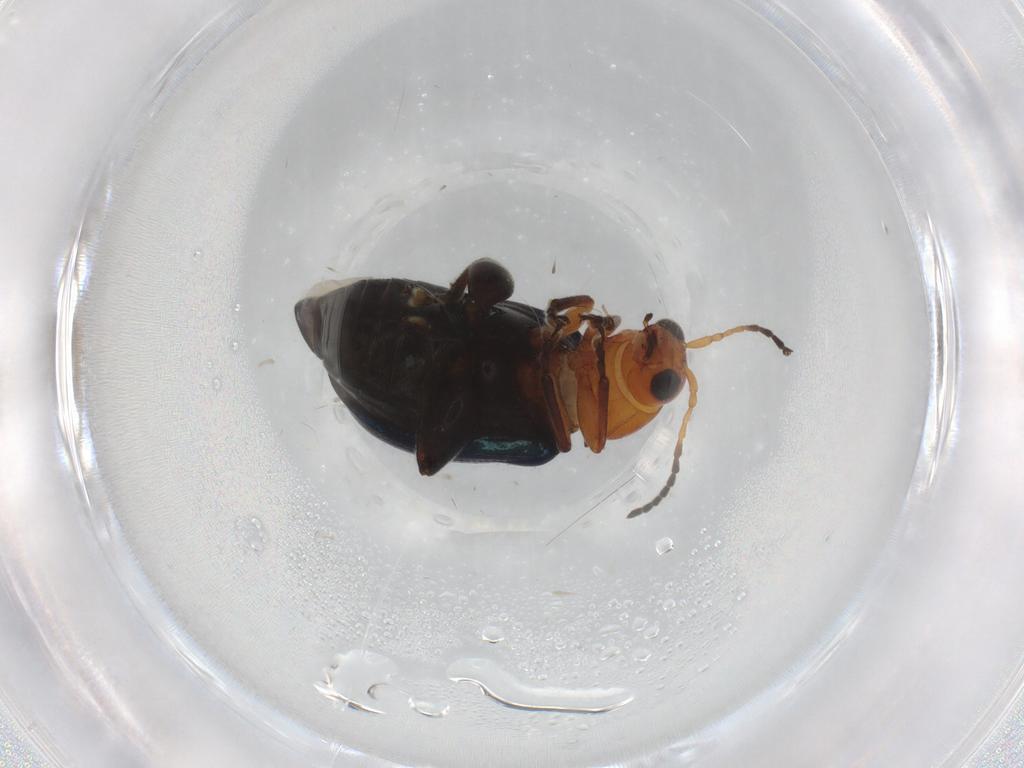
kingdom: Animalia
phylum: Arthropoda
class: Insecta
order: Coleoptera
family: Chrysomelidae
